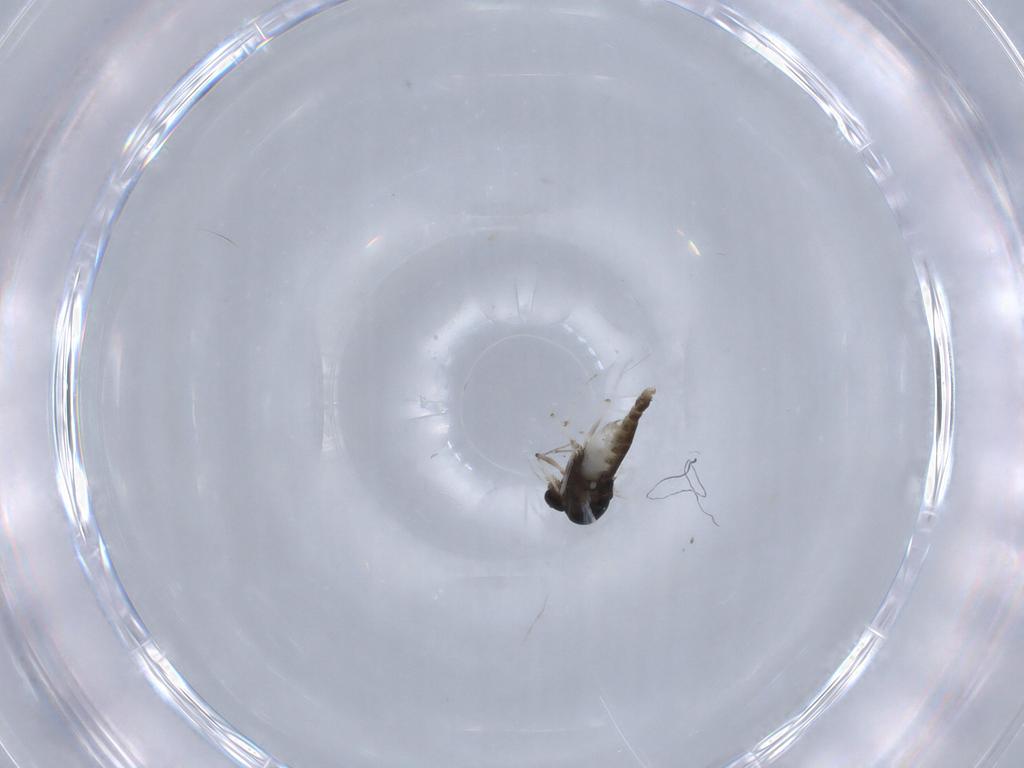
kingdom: Animalia
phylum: Arthropoda
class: Insecta
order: Diptera
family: Chironomidae
